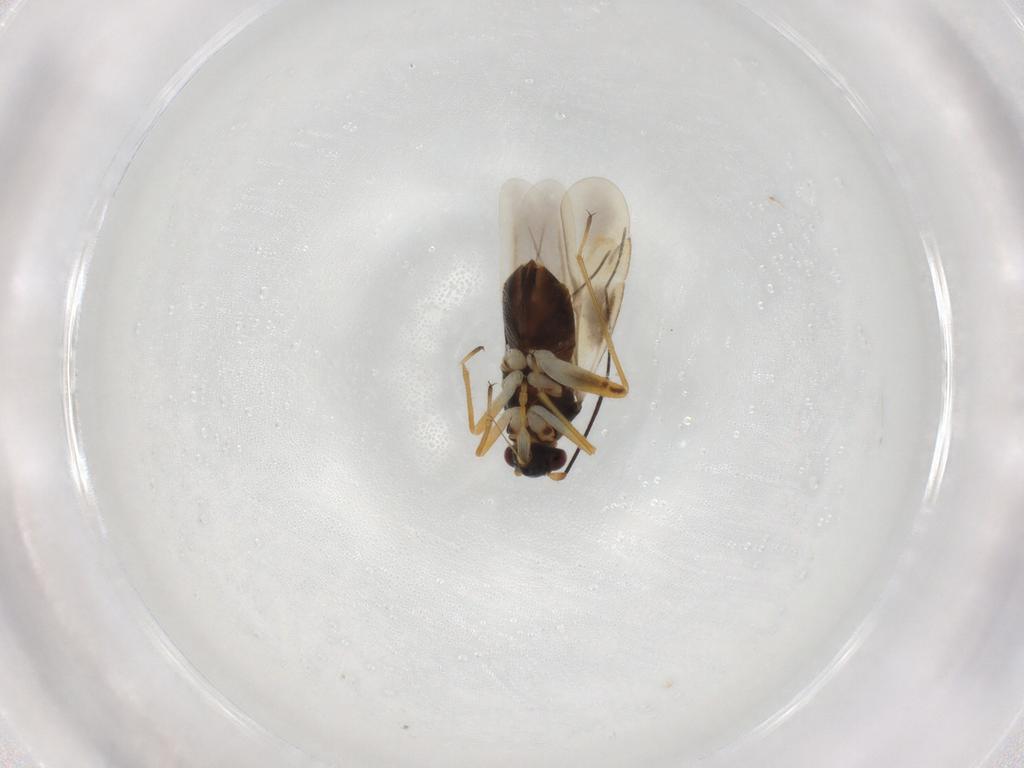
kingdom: Animalia
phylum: Arthropoda
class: Insecta
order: Hemiptera
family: Miridae
